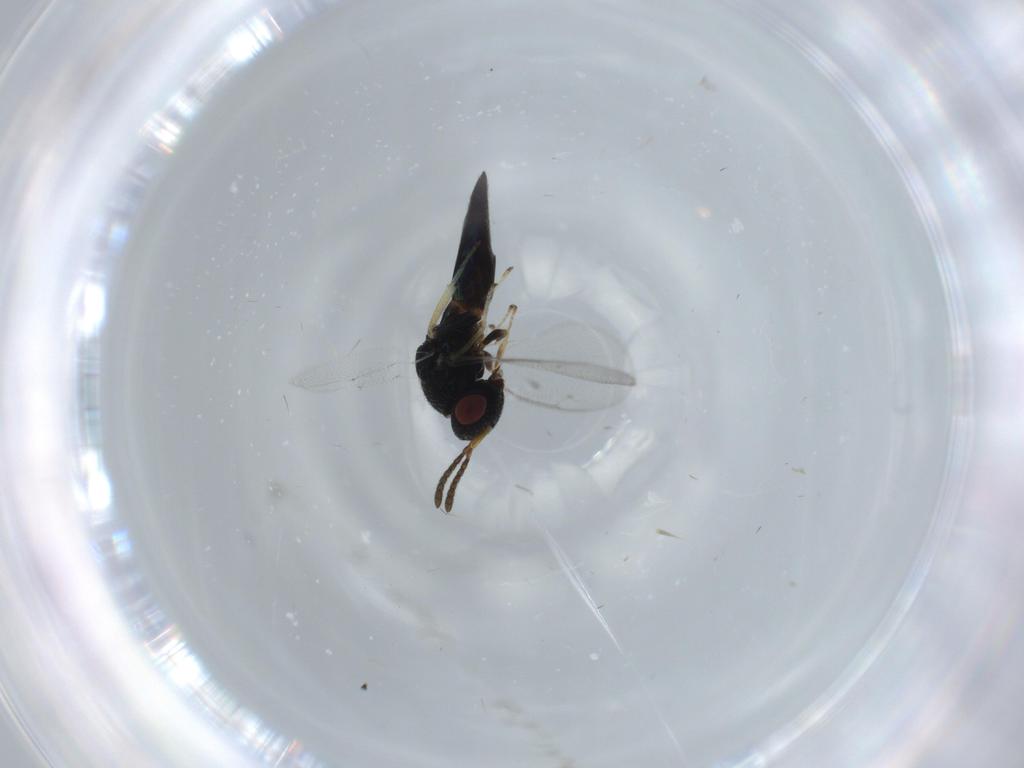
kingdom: Animalia
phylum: Arthropoda
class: Insecta
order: Hymenoptera
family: Pteromalidae
